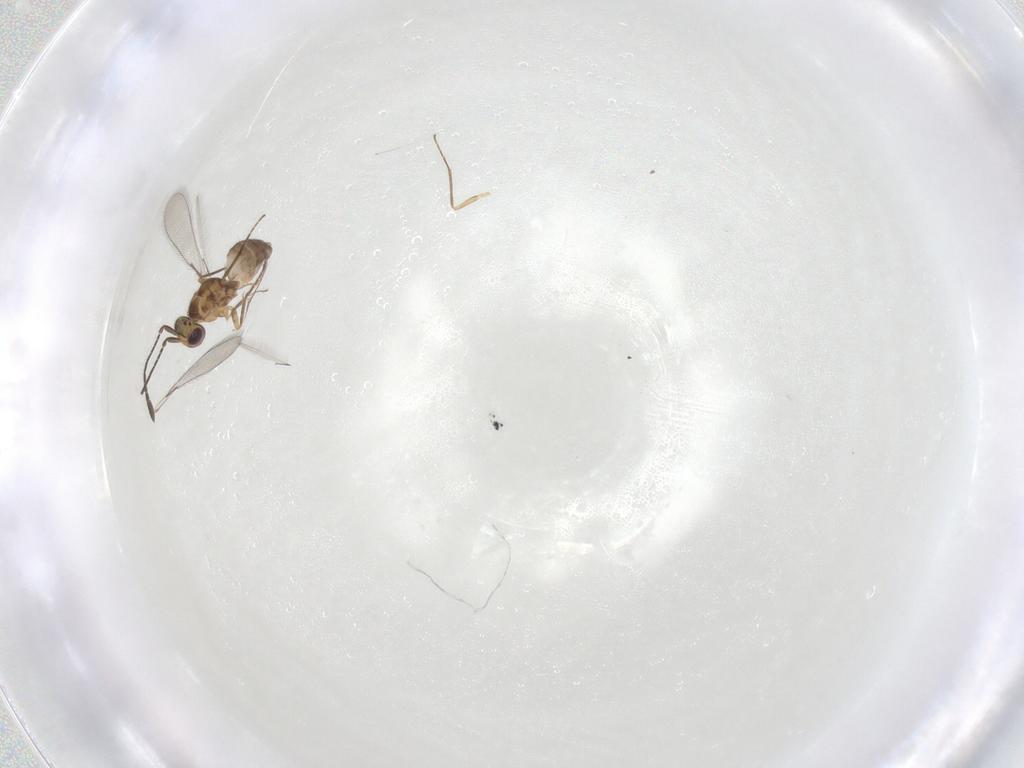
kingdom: Animalia
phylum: Arthropoda
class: Insecta
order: Hymenoptera
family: Mymaridae
